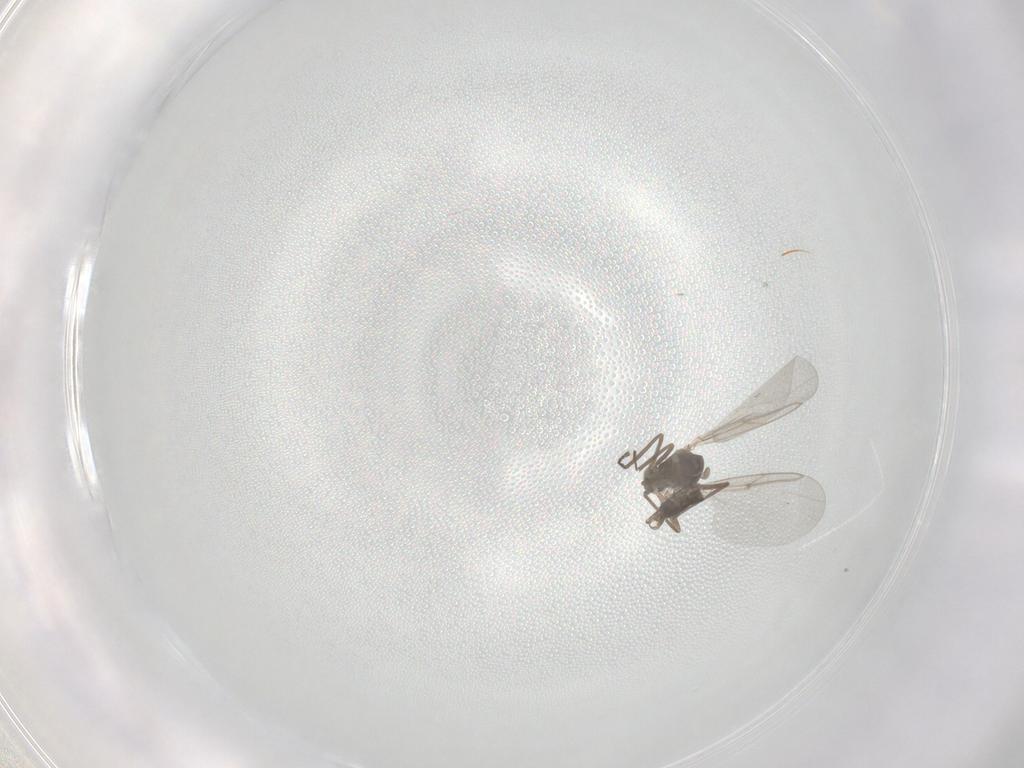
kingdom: Animalia
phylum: Arthropoda
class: Insecta
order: Diptera
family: Cecidomyiidae
